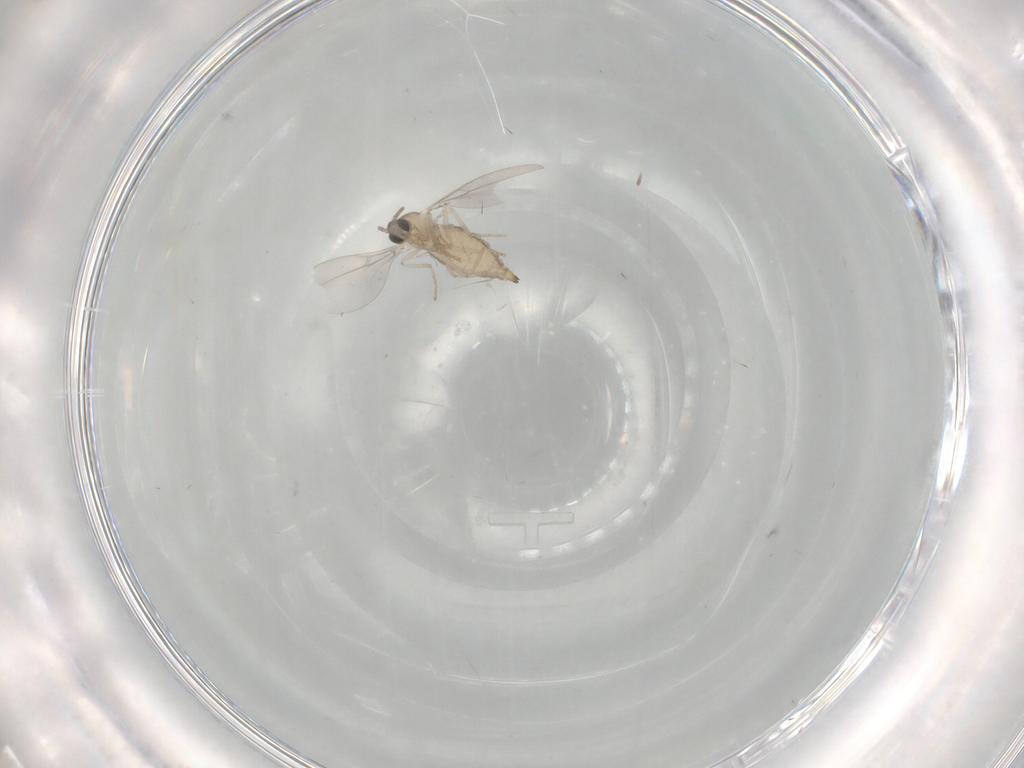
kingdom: Animalia
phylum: Arthropoda
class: Insecta
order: Diptera
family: Cecidomyiidae
